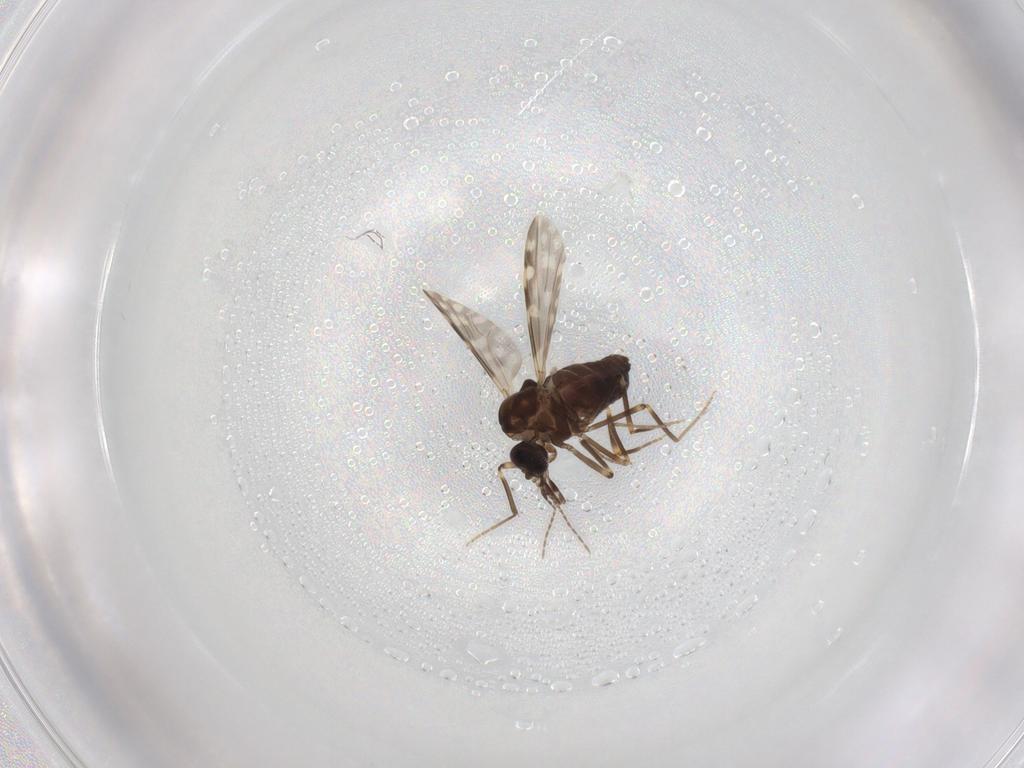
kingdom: Animalia
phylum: Arthropoda
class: Insecta
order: Diptera
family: Ceratopogonidae
